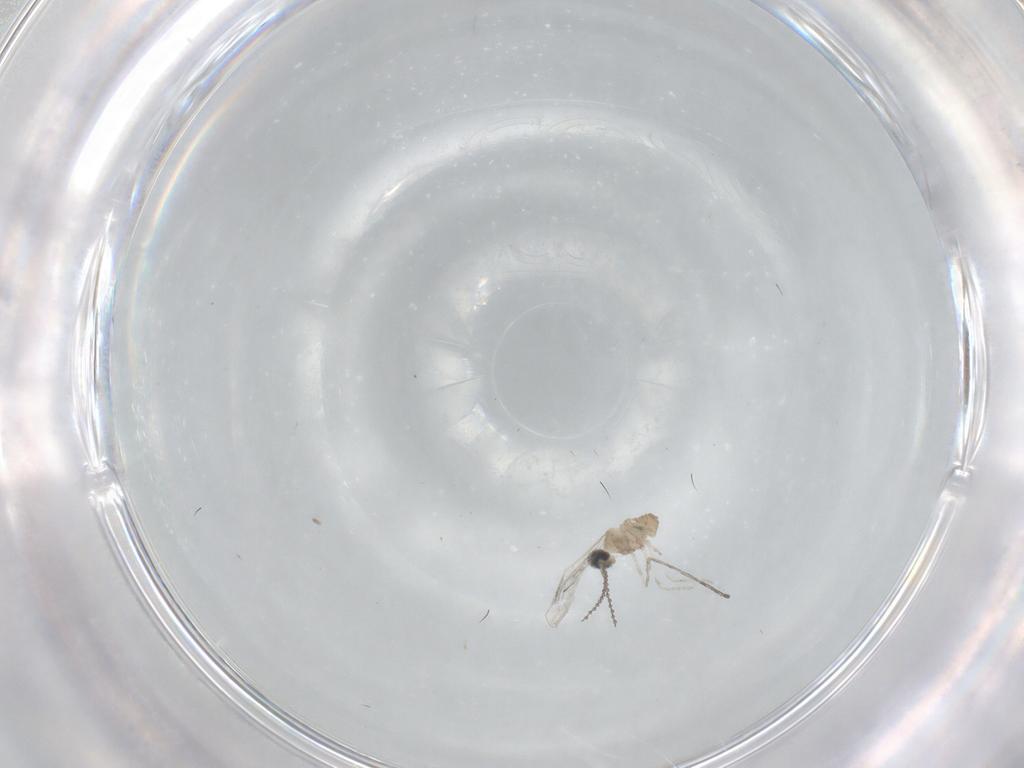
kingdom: Animalia
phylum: Arthropoda
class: Insecta
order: Diptera
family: Cecidomyiidae
